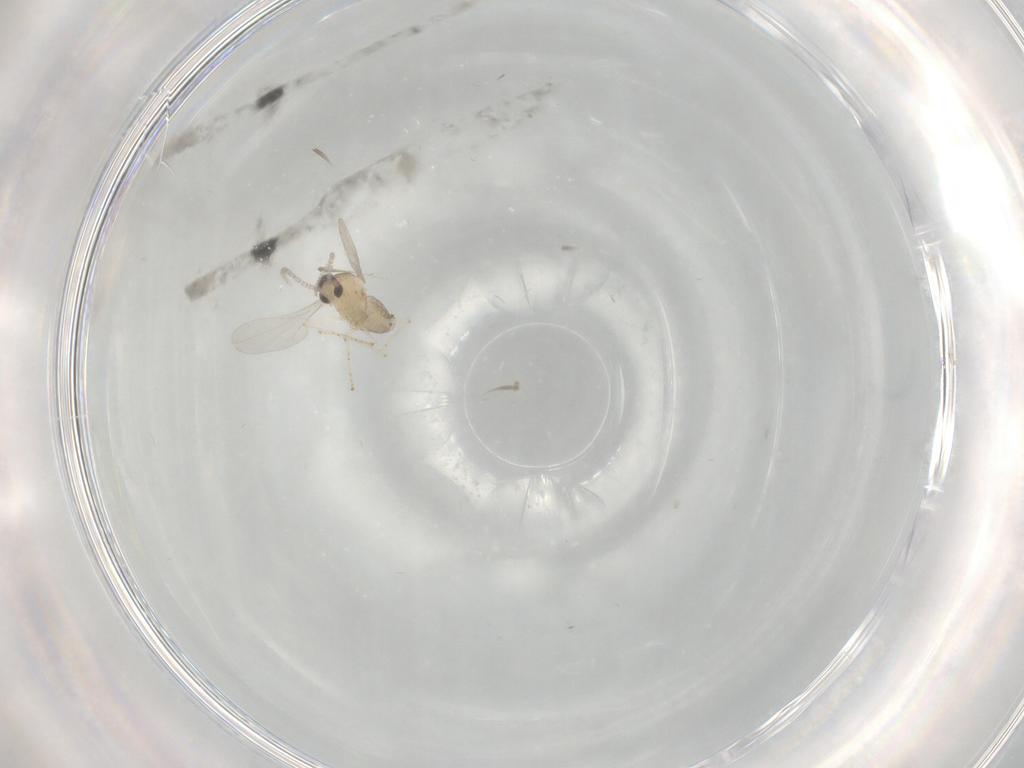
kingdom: Animalia
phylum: Arthropoda
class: Insecta
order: Diptera
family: Cecidomyiidae
